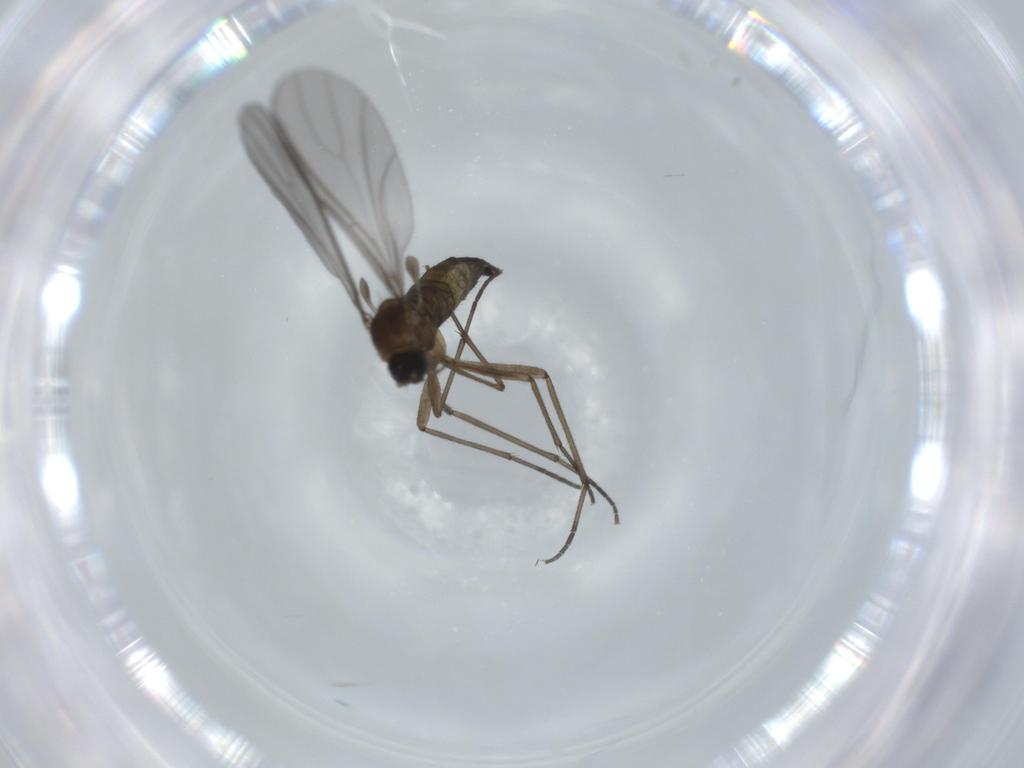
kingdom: Animalia
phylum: Arthropoda
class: Insecta
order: Diptera
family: Sciaridae
